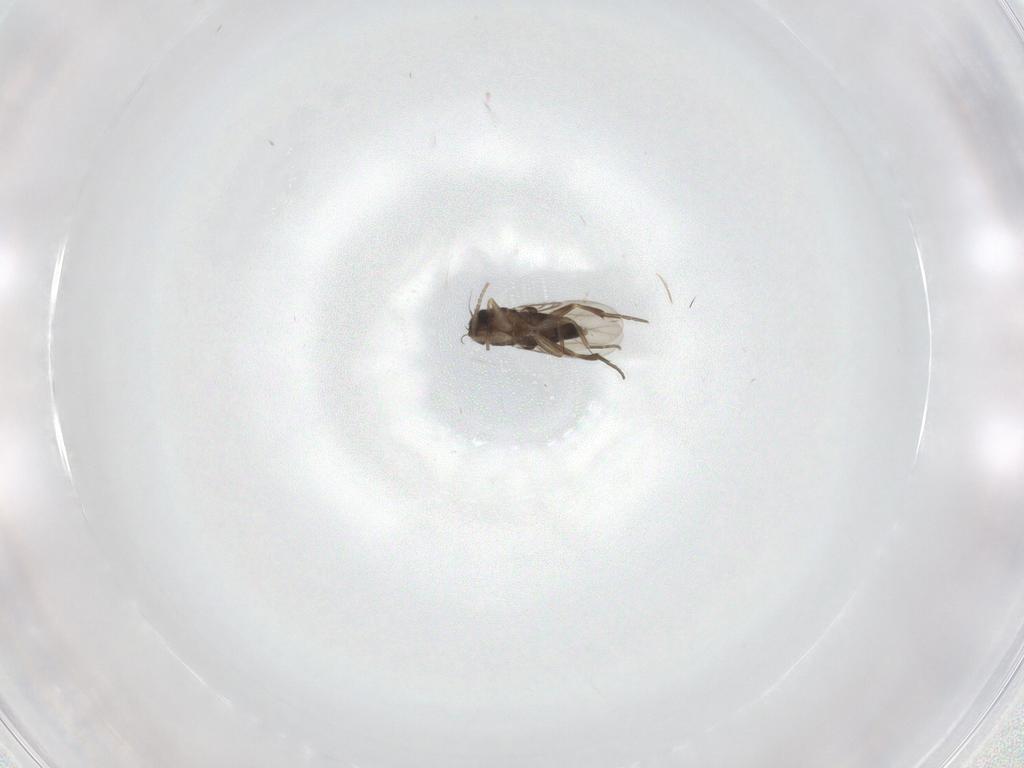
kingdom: Animalia
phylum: Arthropoda
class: Insecta
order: Diptera
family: Phoridae
